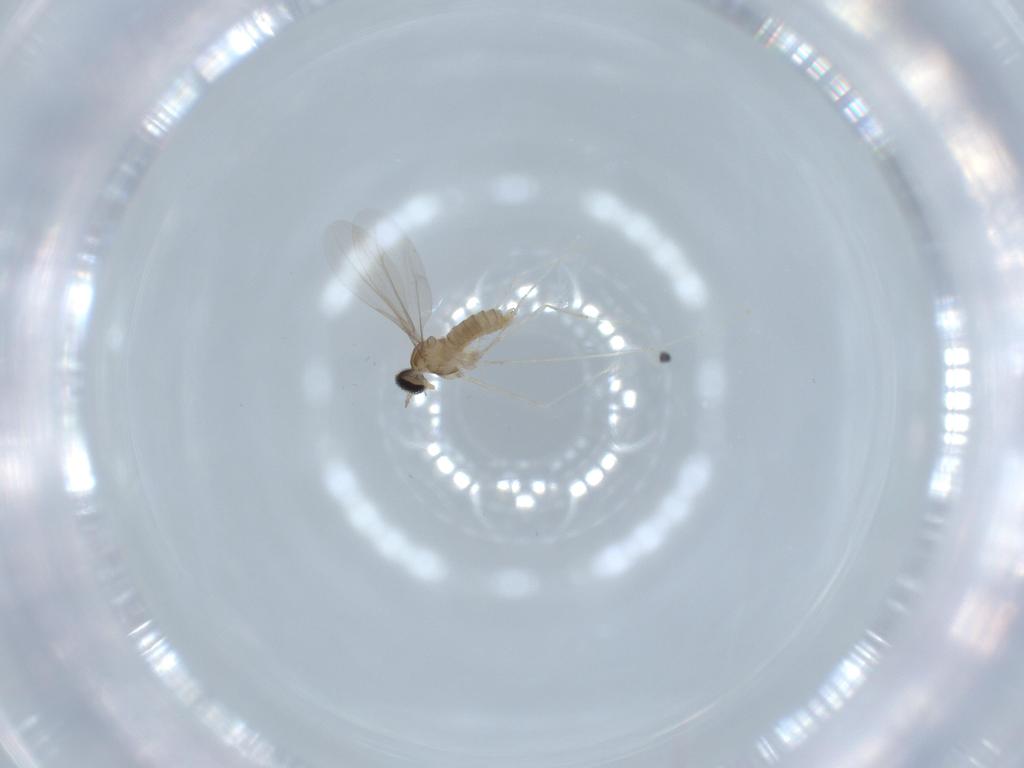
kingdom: Animalia
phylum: Arthropoda
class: Insecta
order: Diptera
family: Cecidomyiidae
